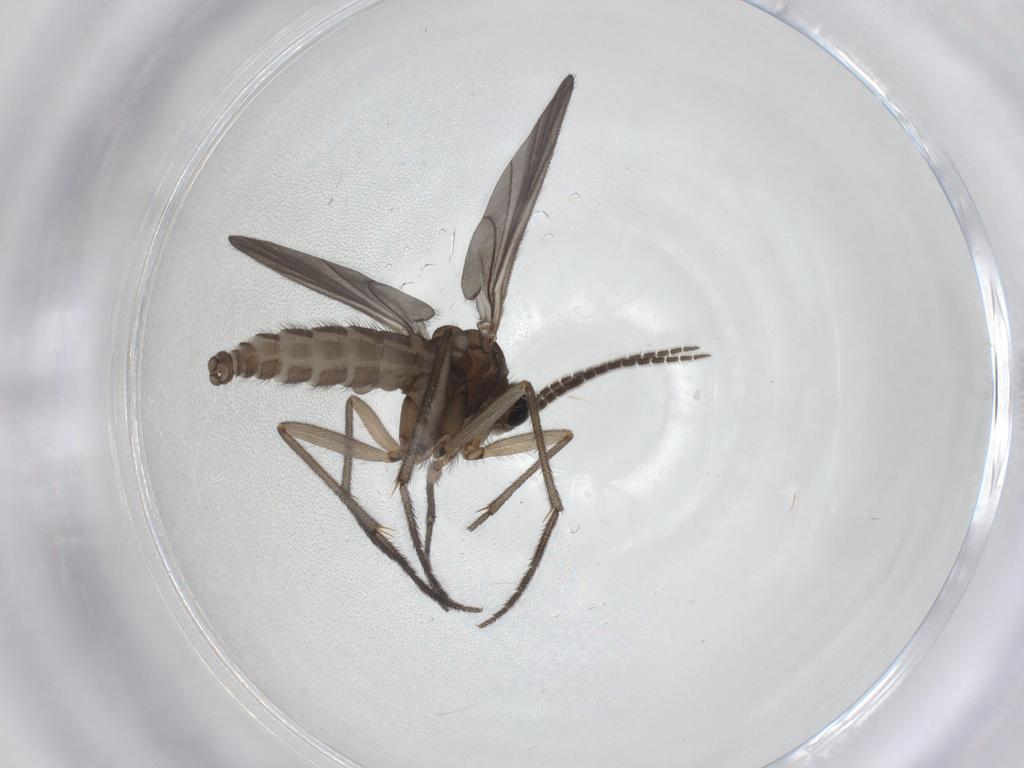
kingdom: Animalia
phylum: Arthropoda
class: Insecta
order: Diptera
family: Sciaridae
